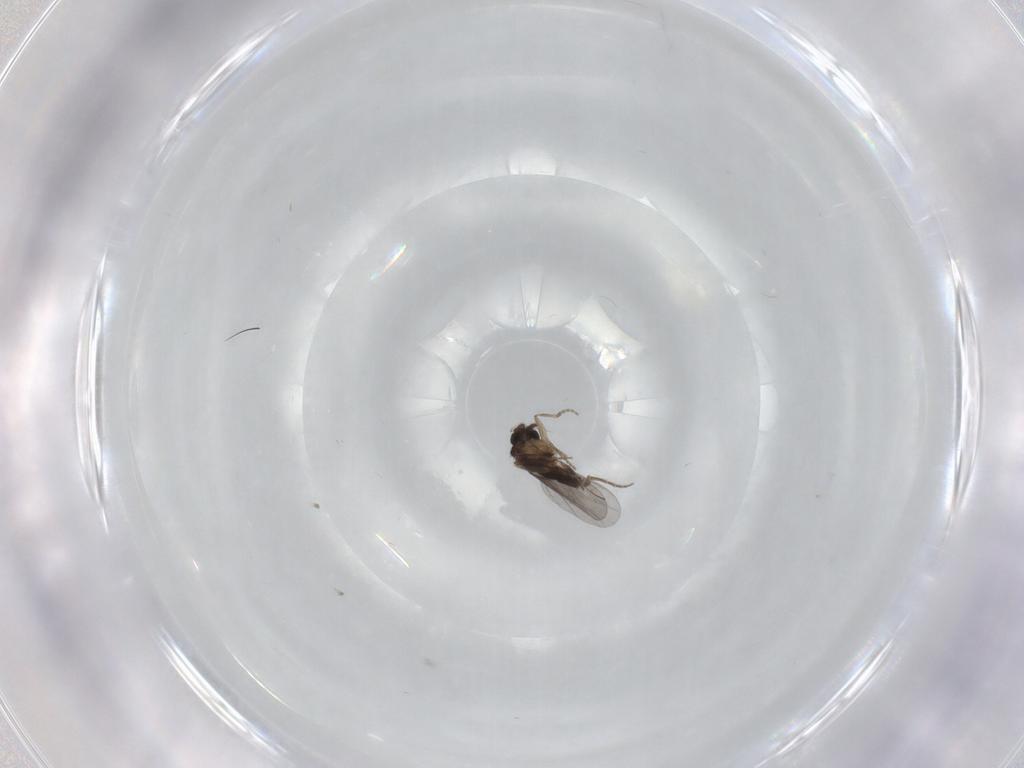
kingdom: Animalia
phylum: Arthropoda
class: Insecta
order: Diptera
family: Phoridae
